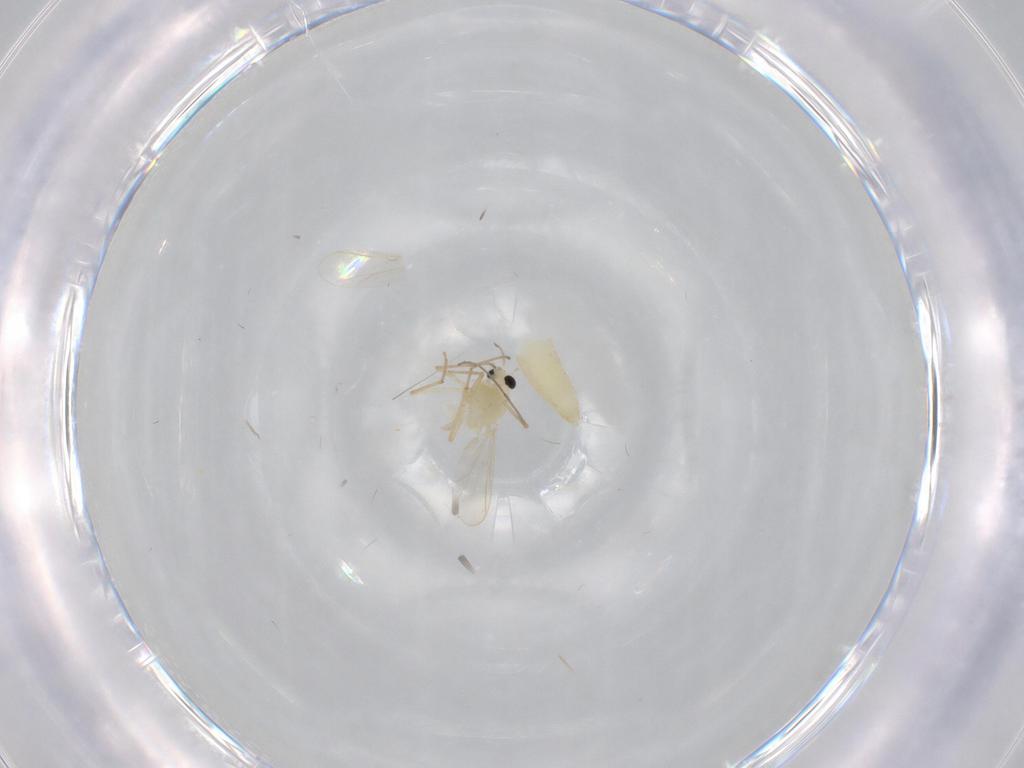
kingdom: Animalia
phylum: Arthropoda
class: Insecta
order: Diptera
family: Chironomidae
